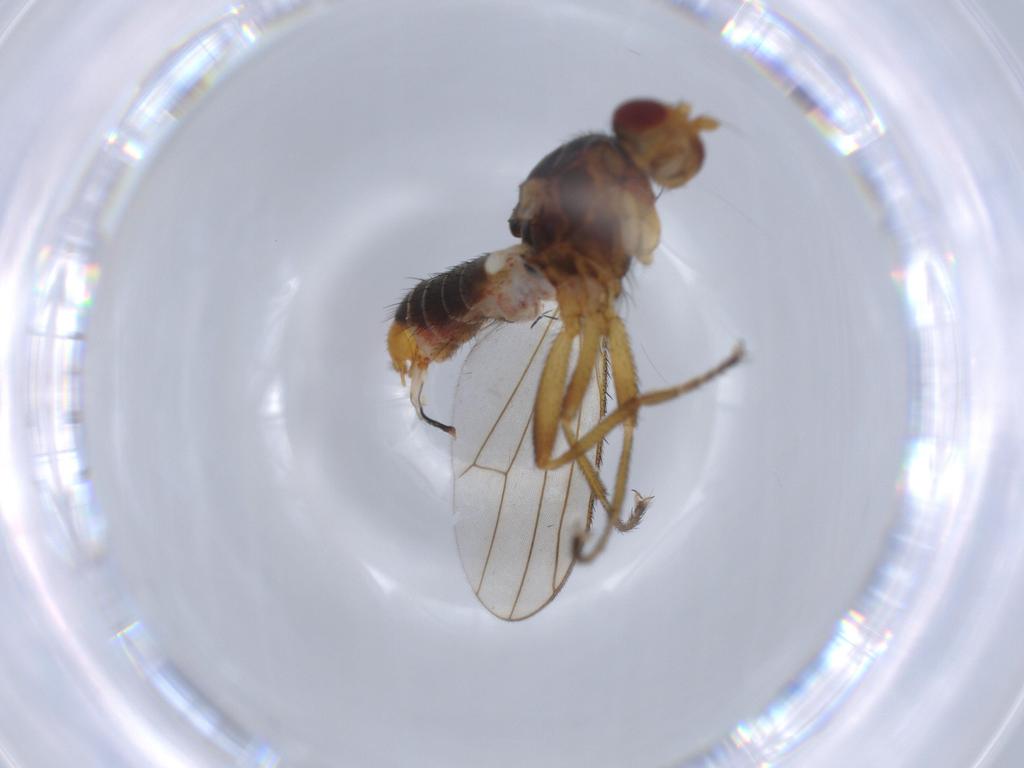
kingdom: Animalia
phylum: Arthropoda
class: Insecta
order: Diptera
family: Heleomyzidae
